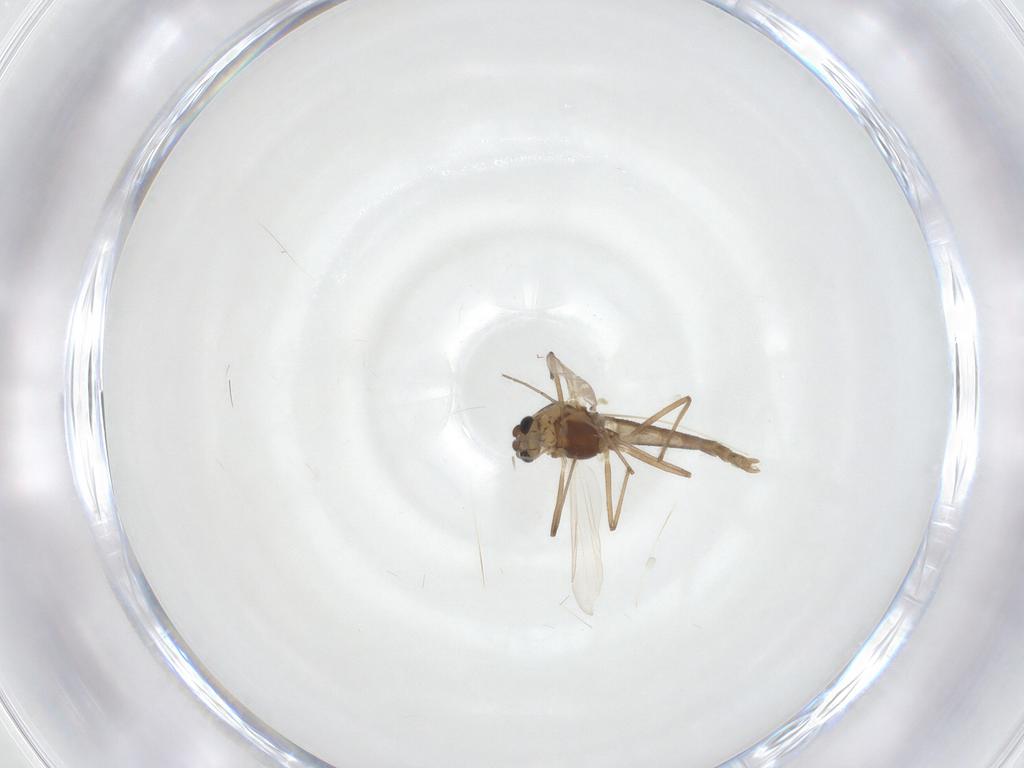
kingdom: Animalia
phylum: Arthropoda
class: Insecta
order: Diptera
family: Chironomidae
